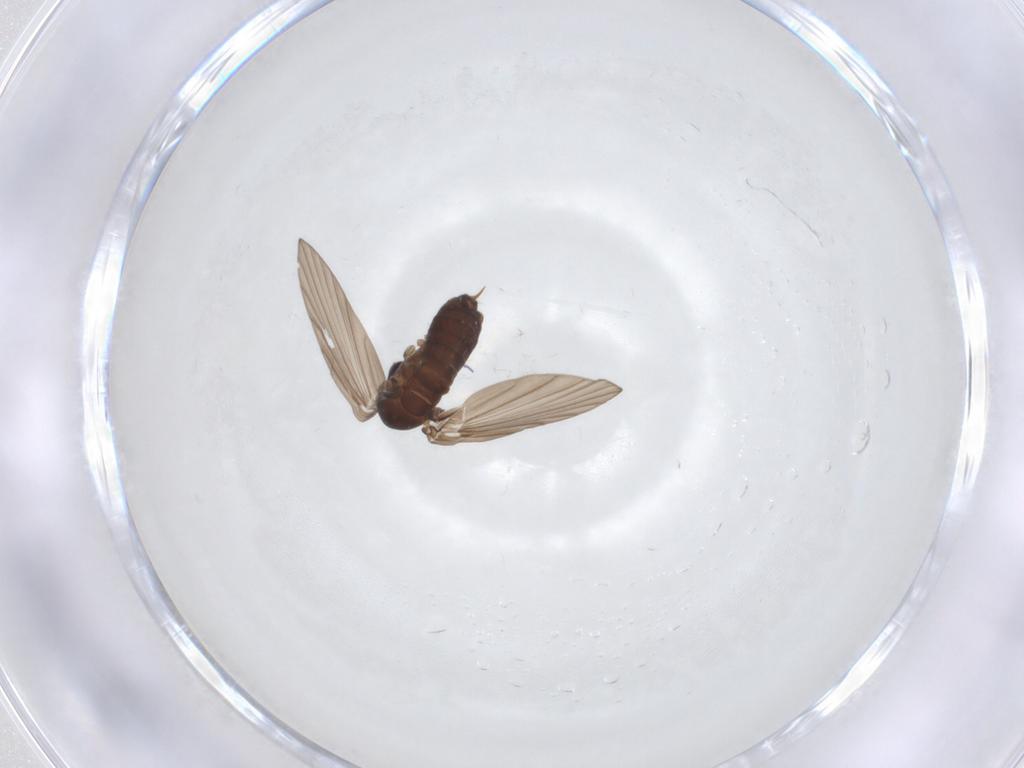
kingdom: Animalia
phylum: Arthropoda
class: Insecta
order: Diptera
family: Psychodidae
